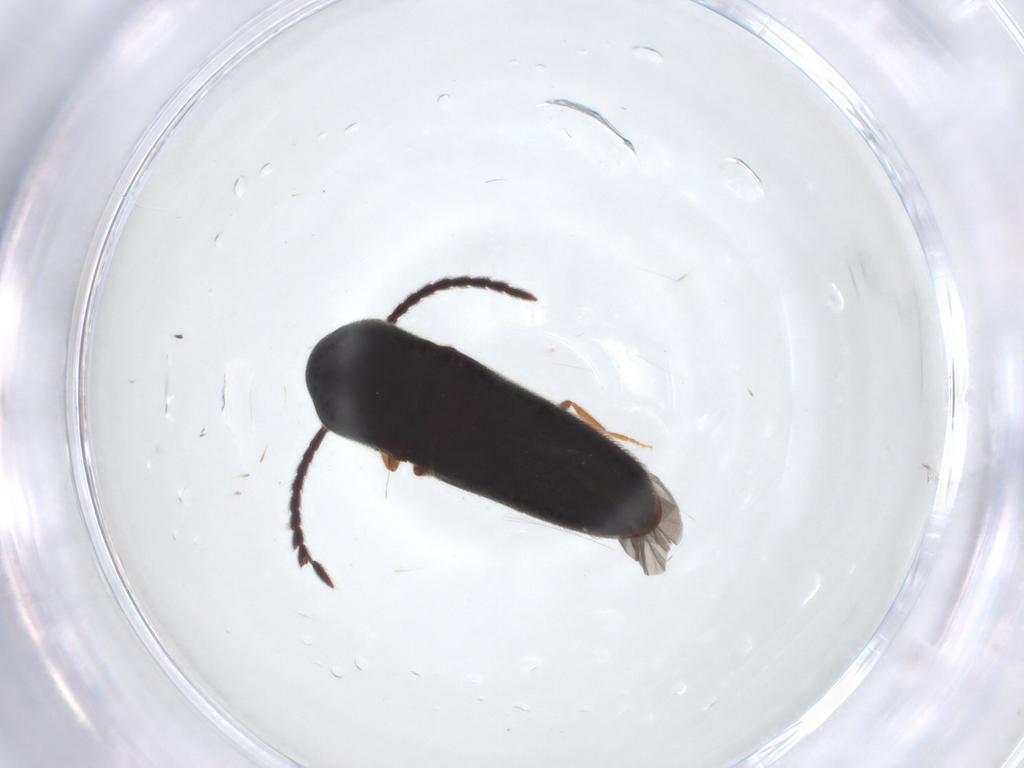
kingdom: Animalia
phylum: Arthropoda
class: Insecta
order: Coleoptera
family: Eucnemidae
